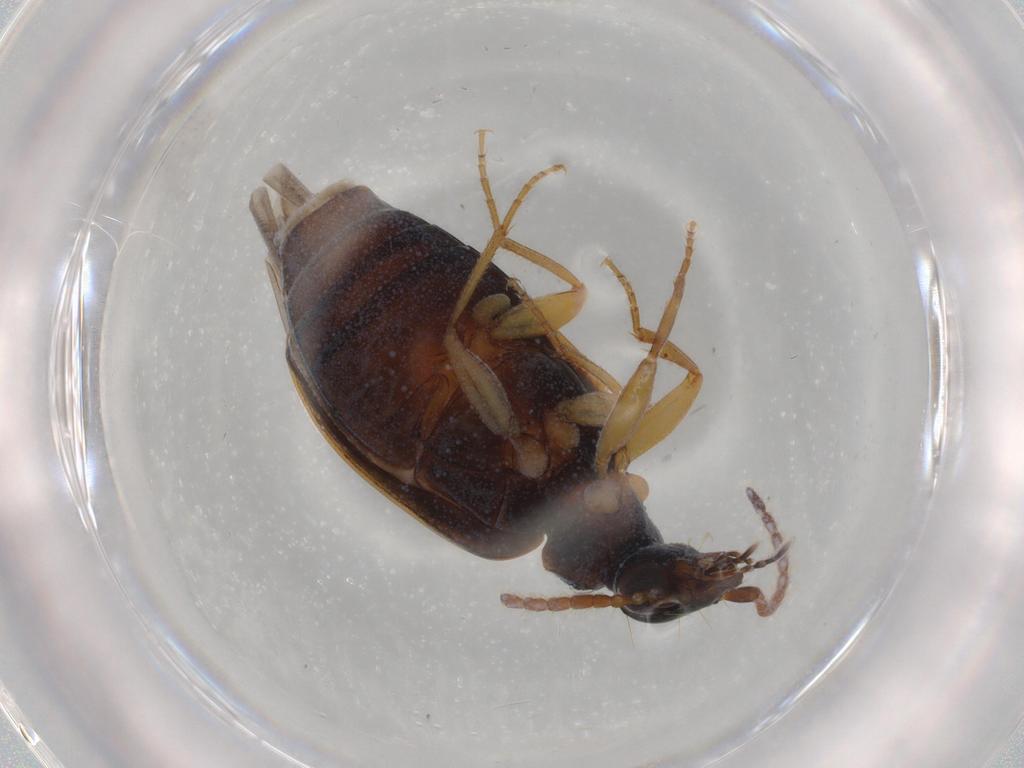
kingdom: Animalia
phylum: Arthropoda
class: Insecta
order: Coleoptera
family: Carabidae
